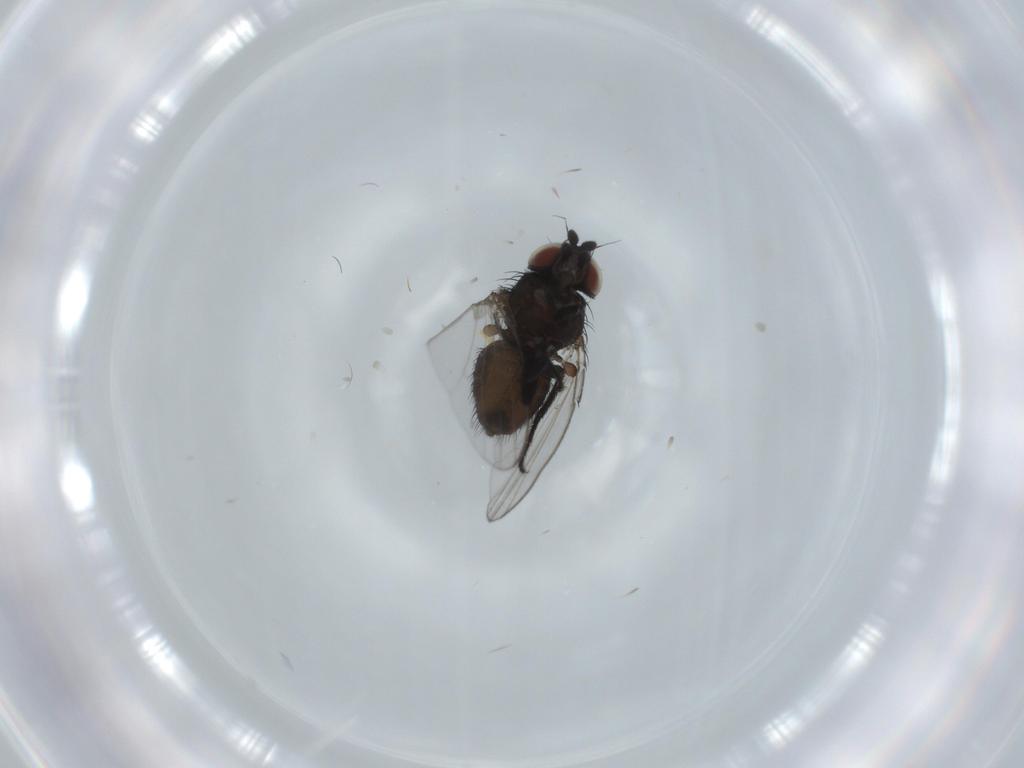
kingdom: Animalia
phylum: Arthropoda
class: Insecta
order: Diptera
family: Milichiidae
